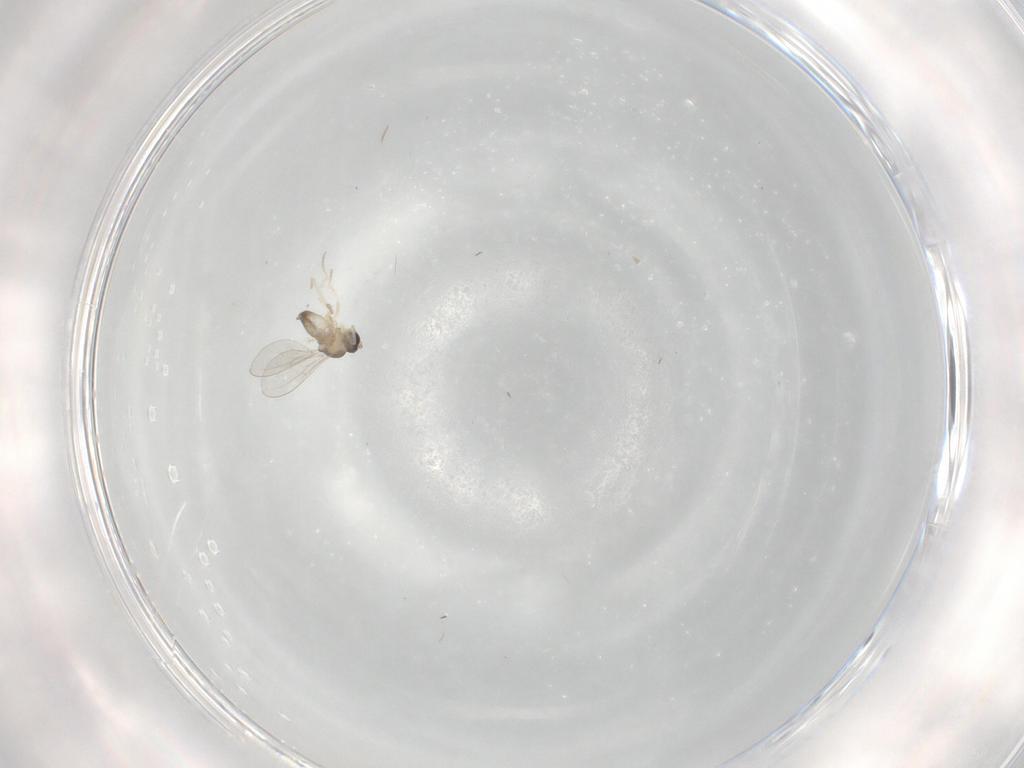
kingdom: Animalia
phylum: Arthropoda
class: Insecta
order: Diptera
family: Cecidomyiidae
